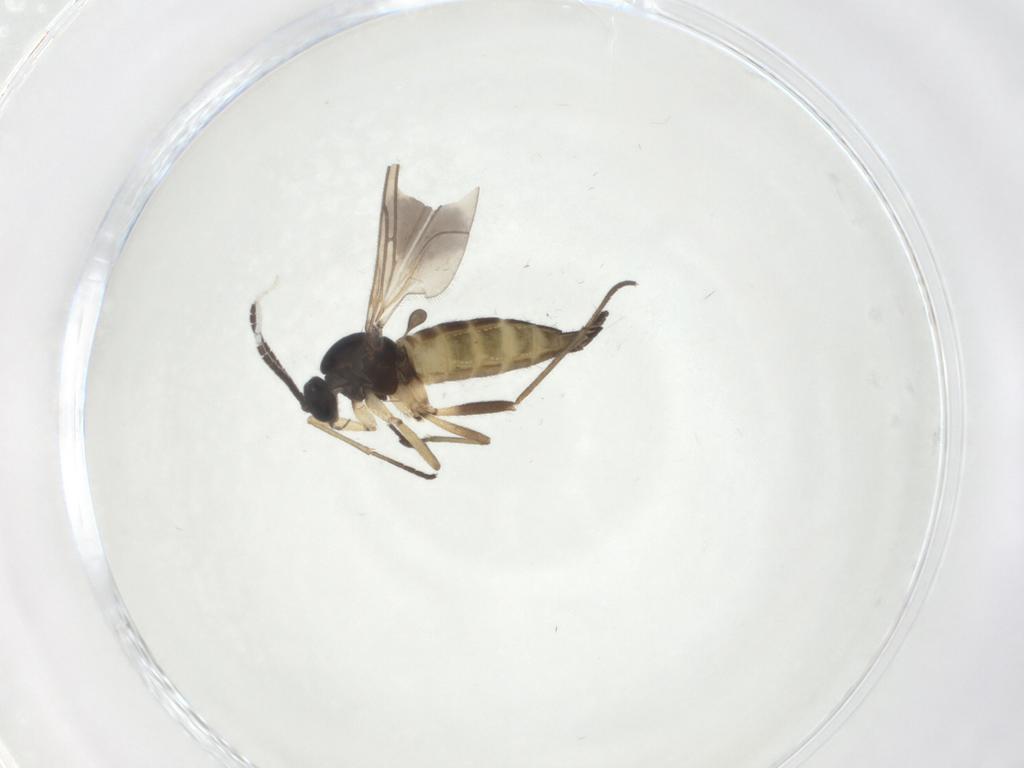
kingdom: Animalia
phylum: Arthropoda
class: Insecta
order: Diptera
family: Sciaridae
